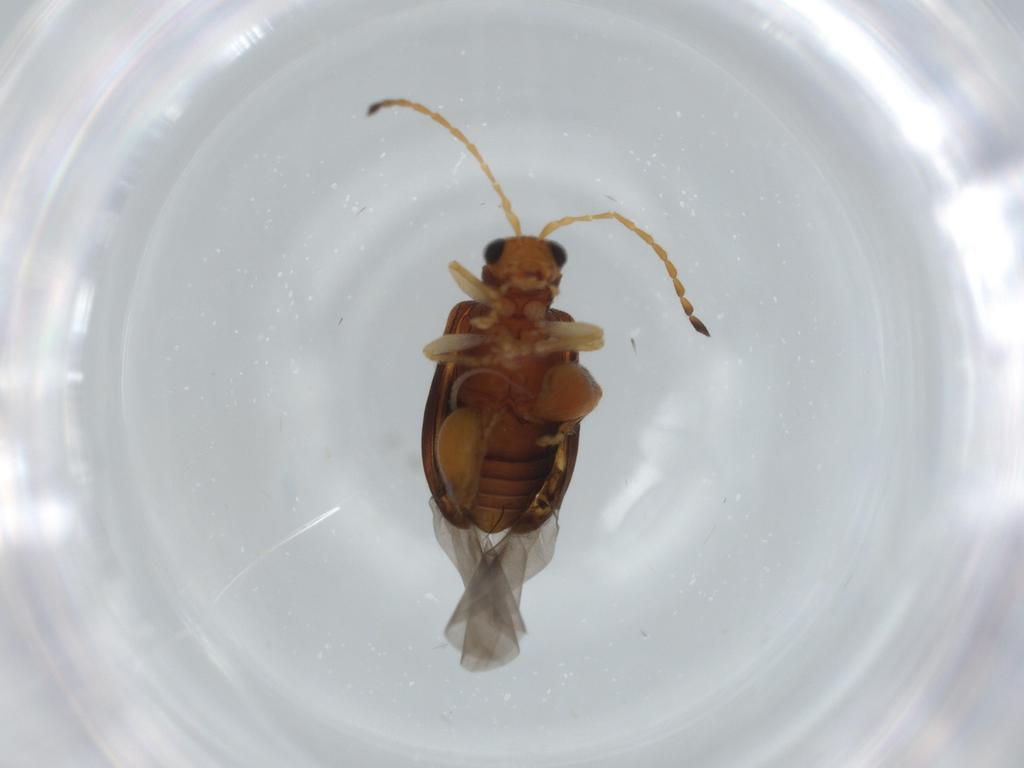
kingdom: Animalia
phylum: Arthropoda
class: Insecta
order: Coleoptera
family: Chrysomelidae
